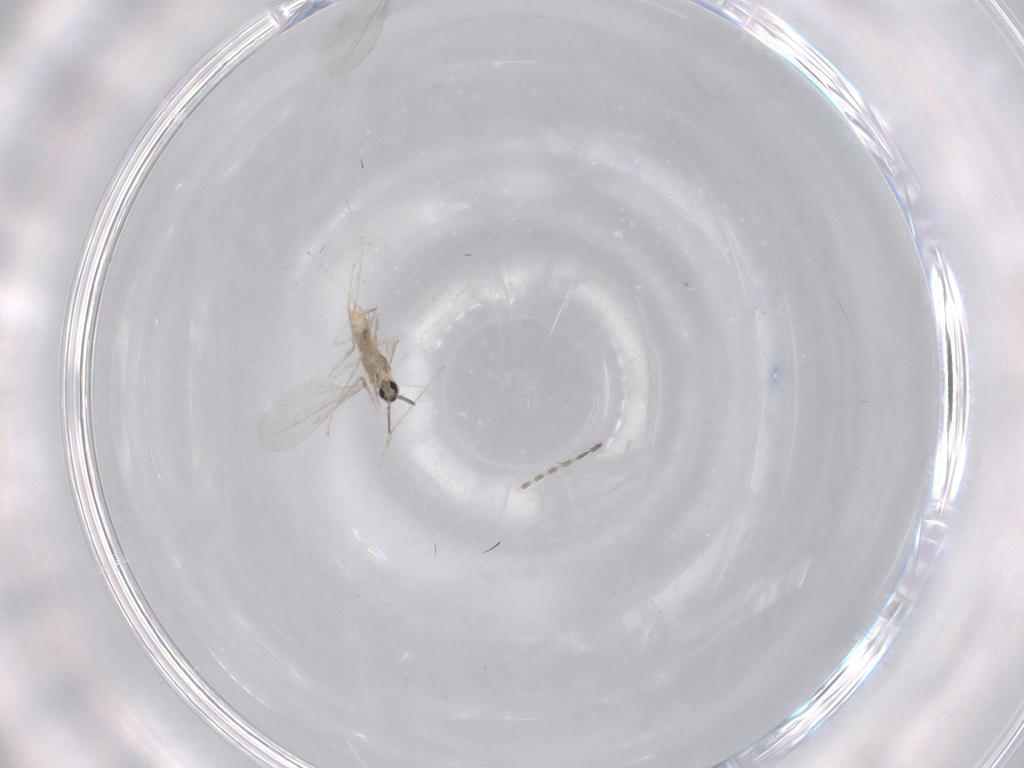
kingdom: Animalia
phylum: Arthropoda
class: Insecta
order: Diptera
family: Cecidomyiidae
